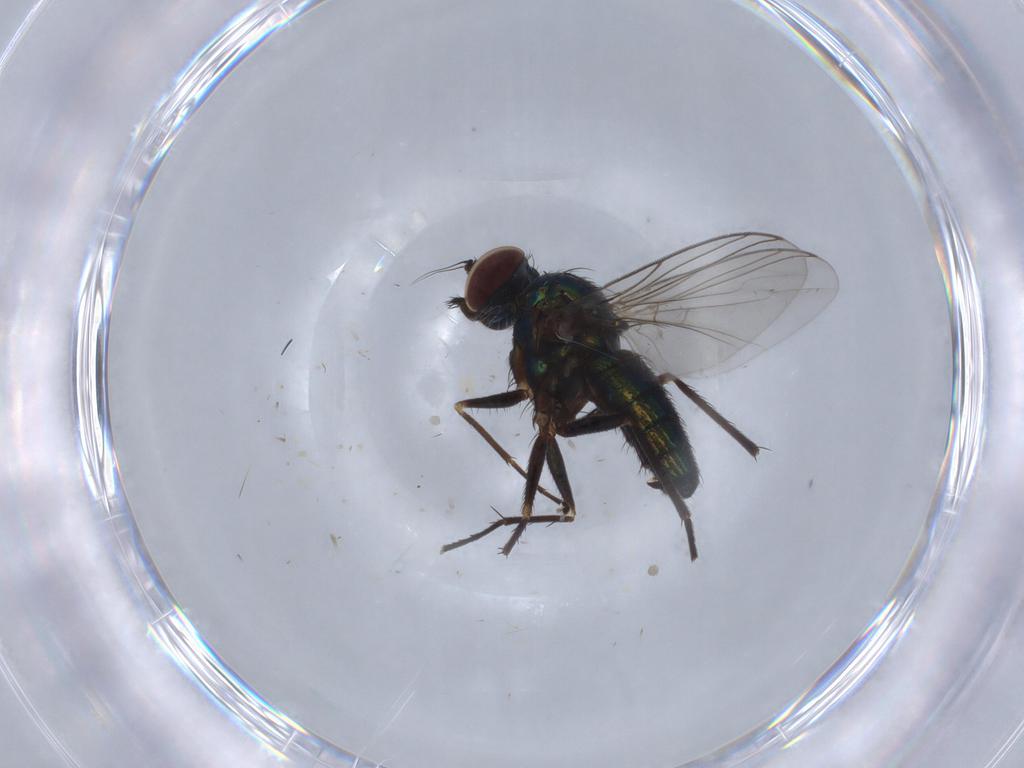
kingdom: Animalia
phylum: Arthropoda
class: Insecta
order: Diptera
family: Dolichopodidae
